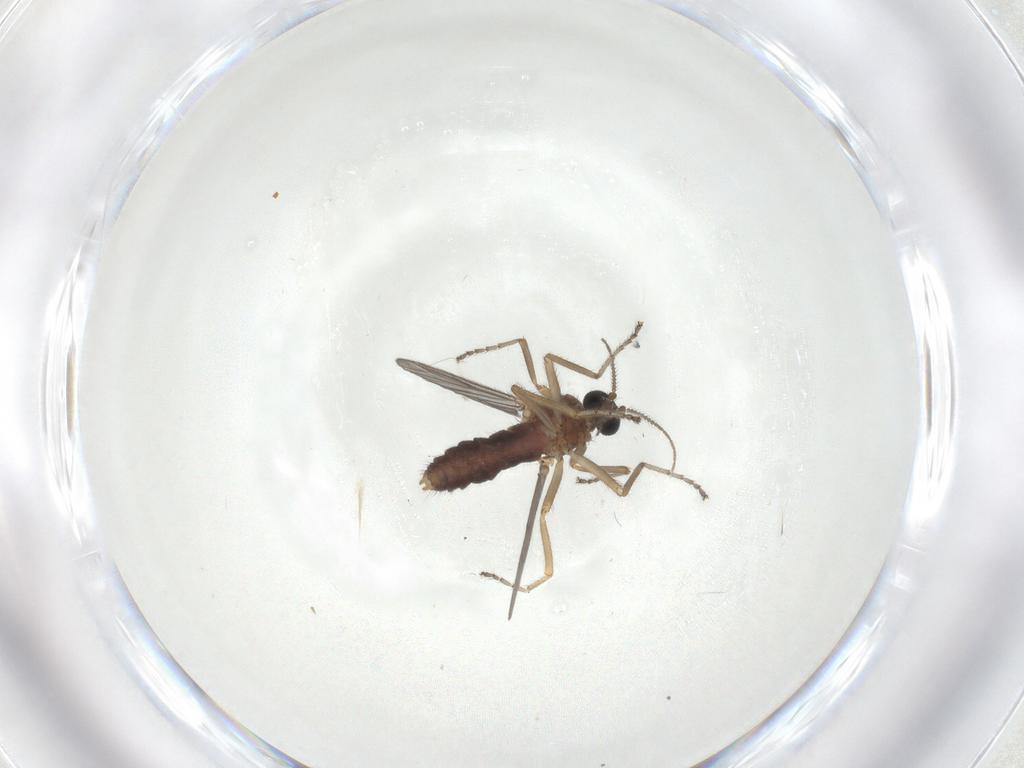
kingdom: Animalia
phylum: Arthropoda
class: Insecta
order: Diptera
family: Ceratopogonidae
